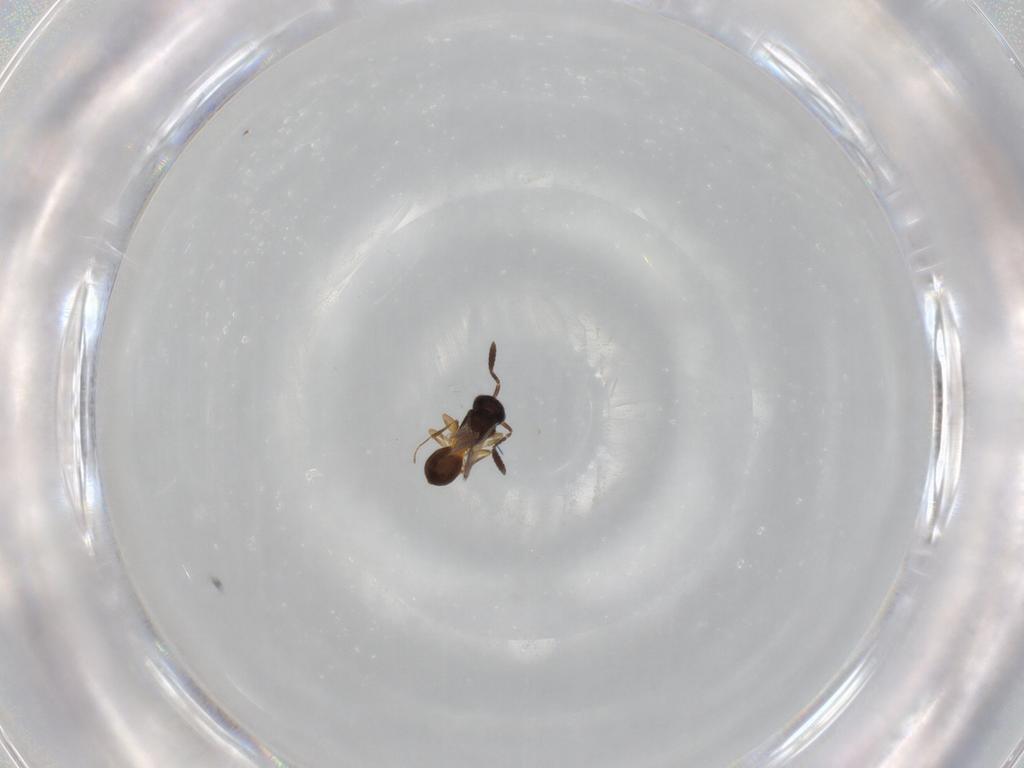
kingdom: Animalia
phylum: Arthropoda
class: Insecta
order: Hymenoptera
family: Scelionidae
